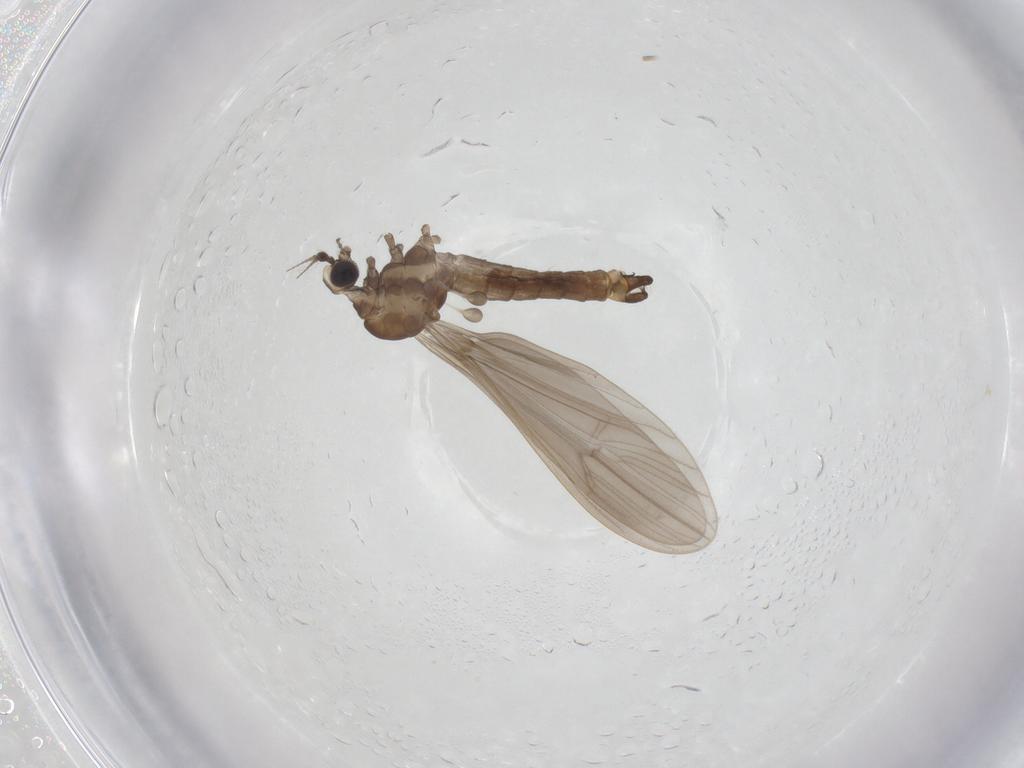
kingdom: Animalia
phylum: Arthropoda
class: Insecta
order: Diptera
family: Limoniidae
